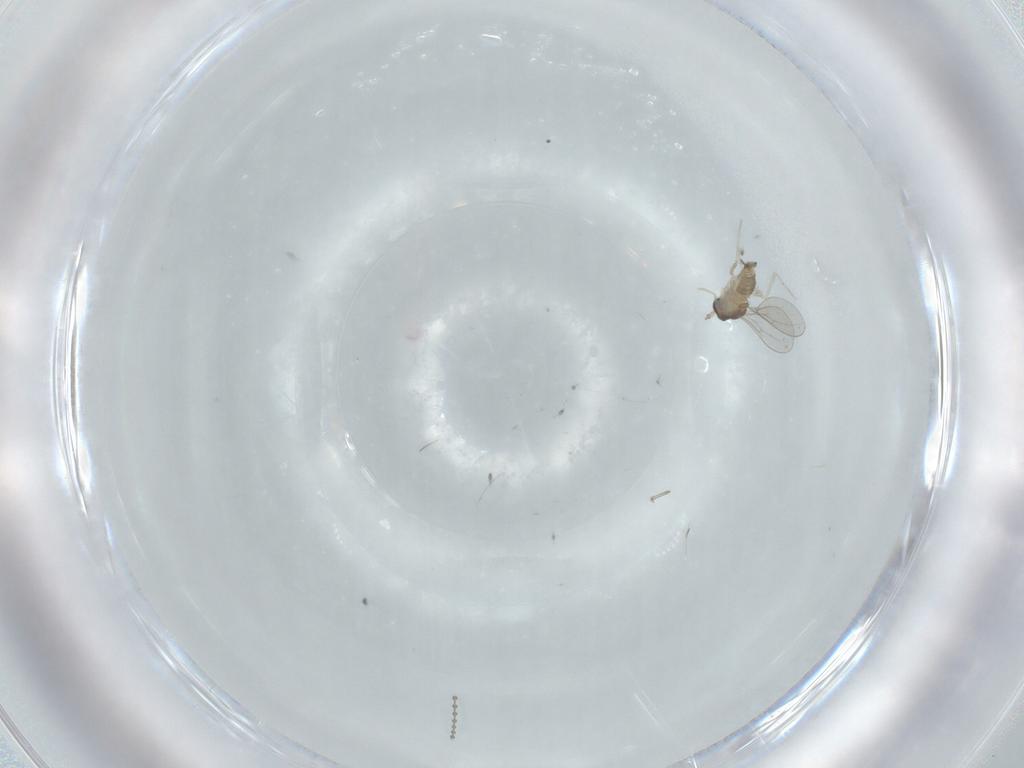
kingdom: Animalia
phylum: Arthropoda
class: Insecta
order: Diptera
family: Cecidomyiidae
